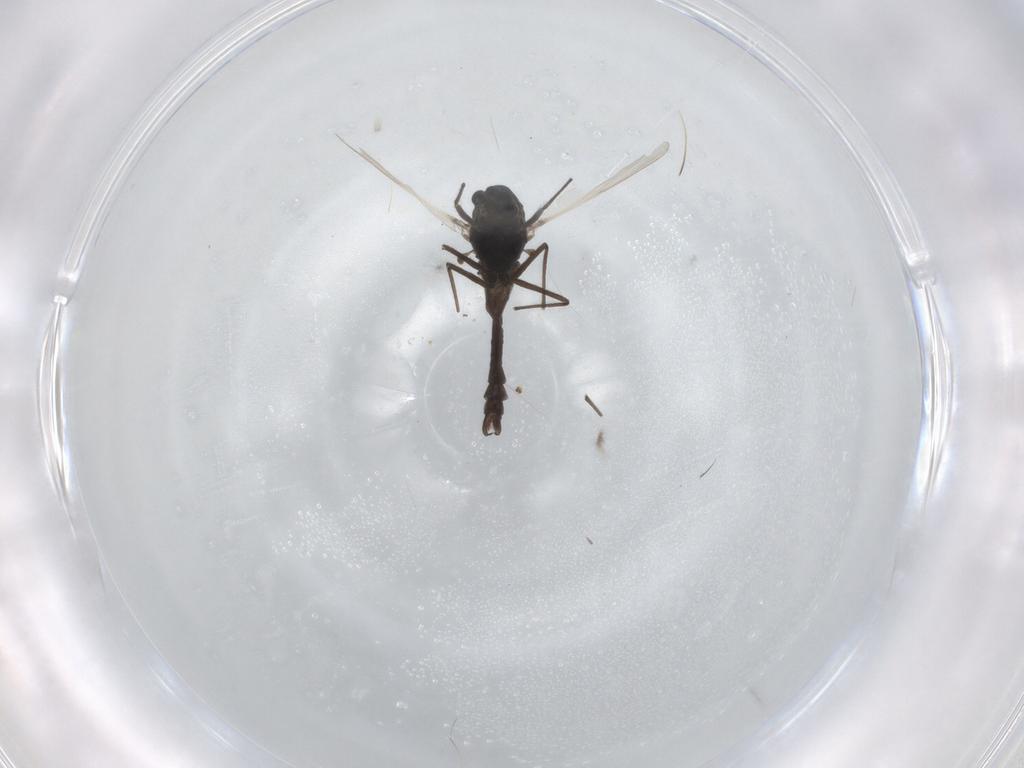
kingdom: Animalia
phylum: Arthropoda
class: Insecta
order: Diptera
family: Chironomidae
